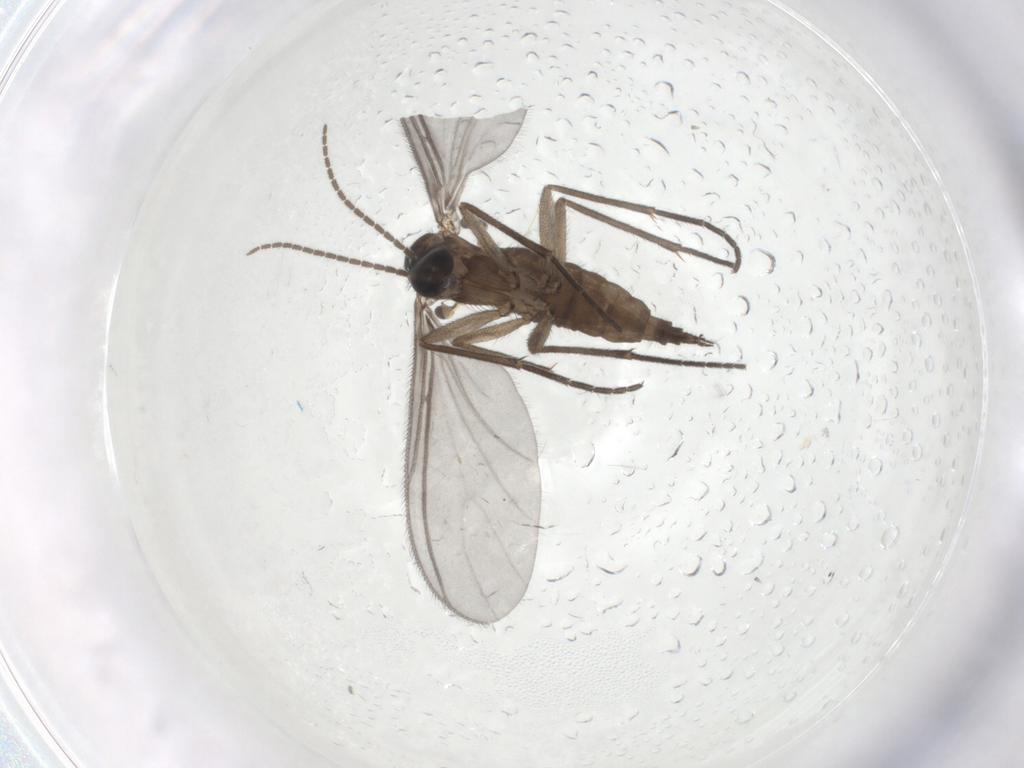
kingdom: Animalia
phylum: Arthropoda
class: Insecta
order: Diptera
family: Sciaridae
